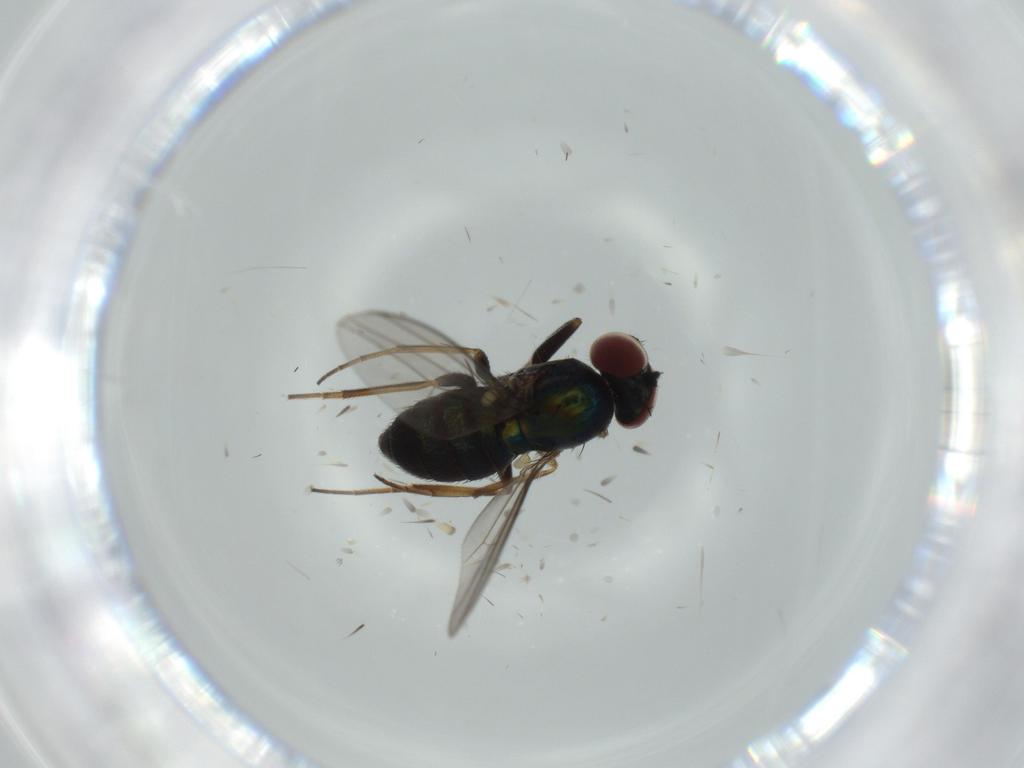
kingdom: Animalia
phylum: Arthropoda
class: Insecta
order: Diptera
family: Dolichopodidae
